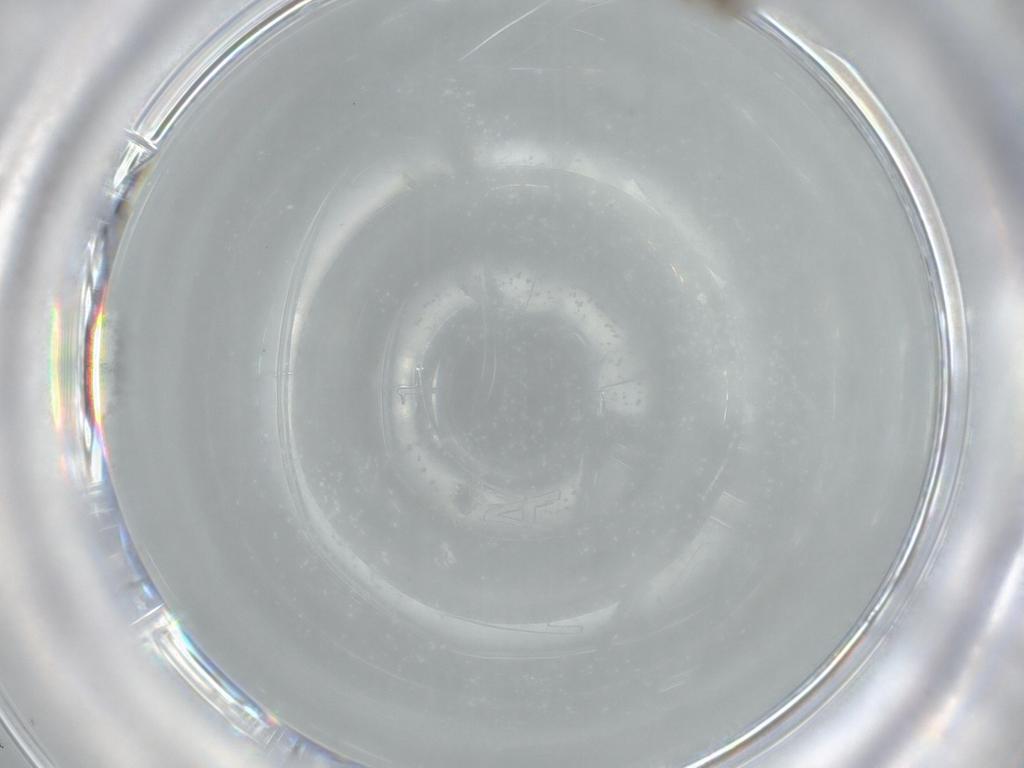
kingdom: Animalia
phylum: Arthropoda
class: Insecta
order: Psocodea
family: Liposcelididae
